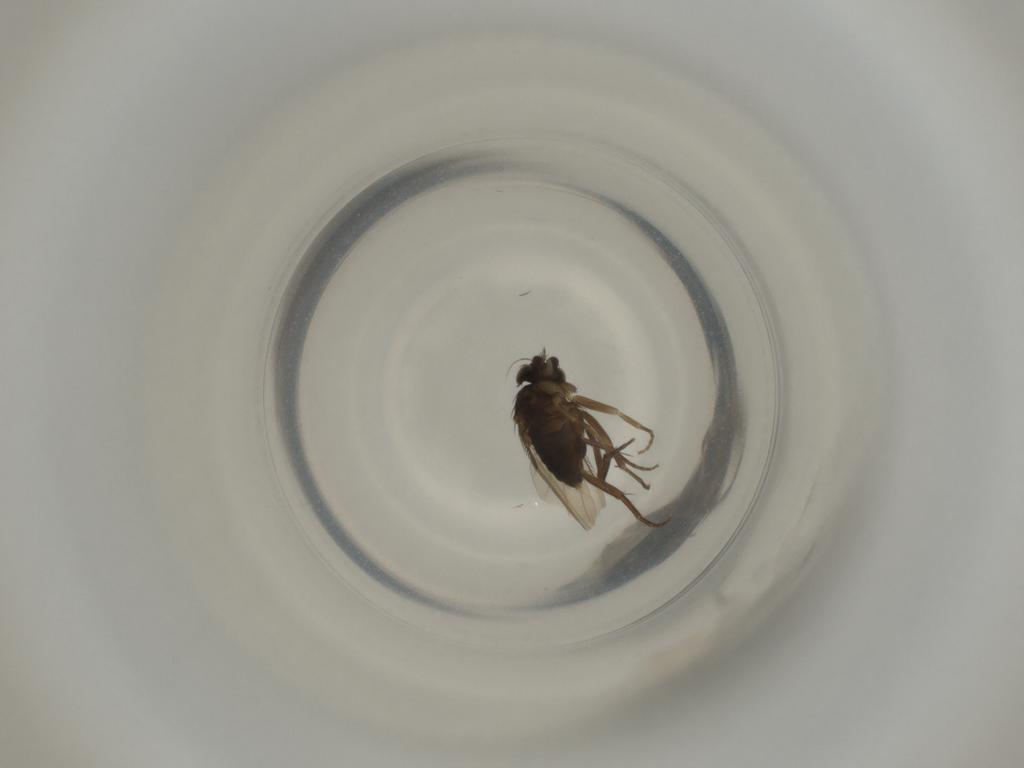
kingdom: Animalia
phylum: Arthropoda
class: Insecta
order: Diptera
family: Phoridae
